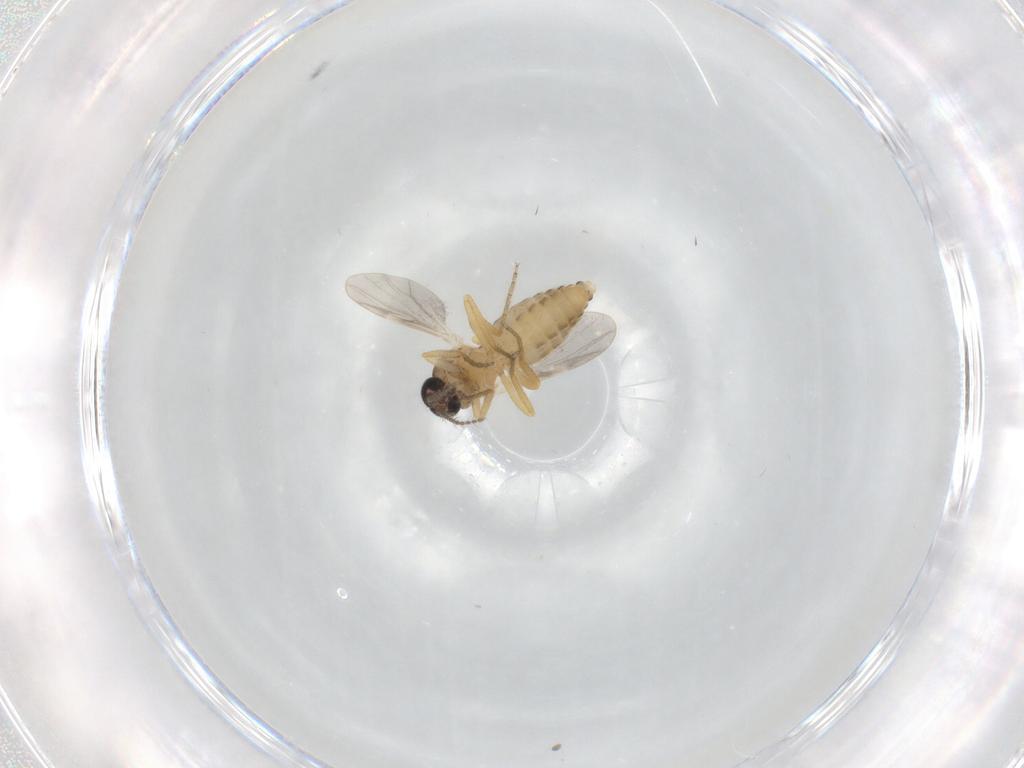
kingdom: Animalia
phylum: Arthropoda
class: Insecta
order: Diptera
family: Ceratopogonidae
